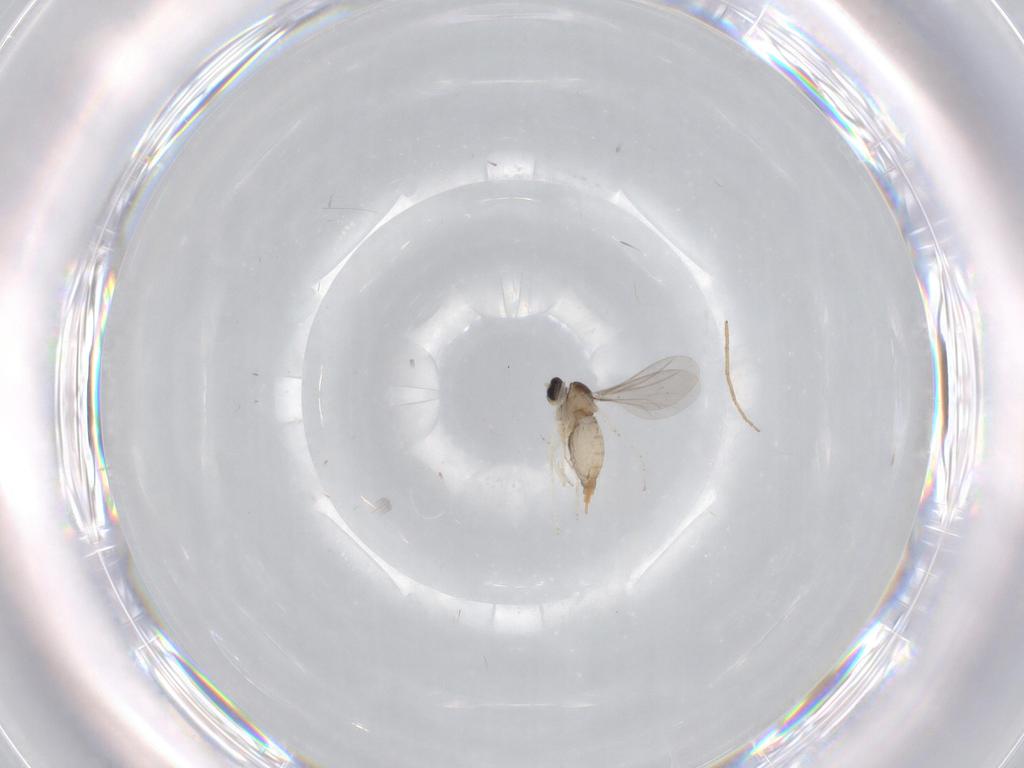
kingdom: Animalia
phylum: Arthropoda
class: Insecta
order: Diptera
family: Cecidomyiidae
